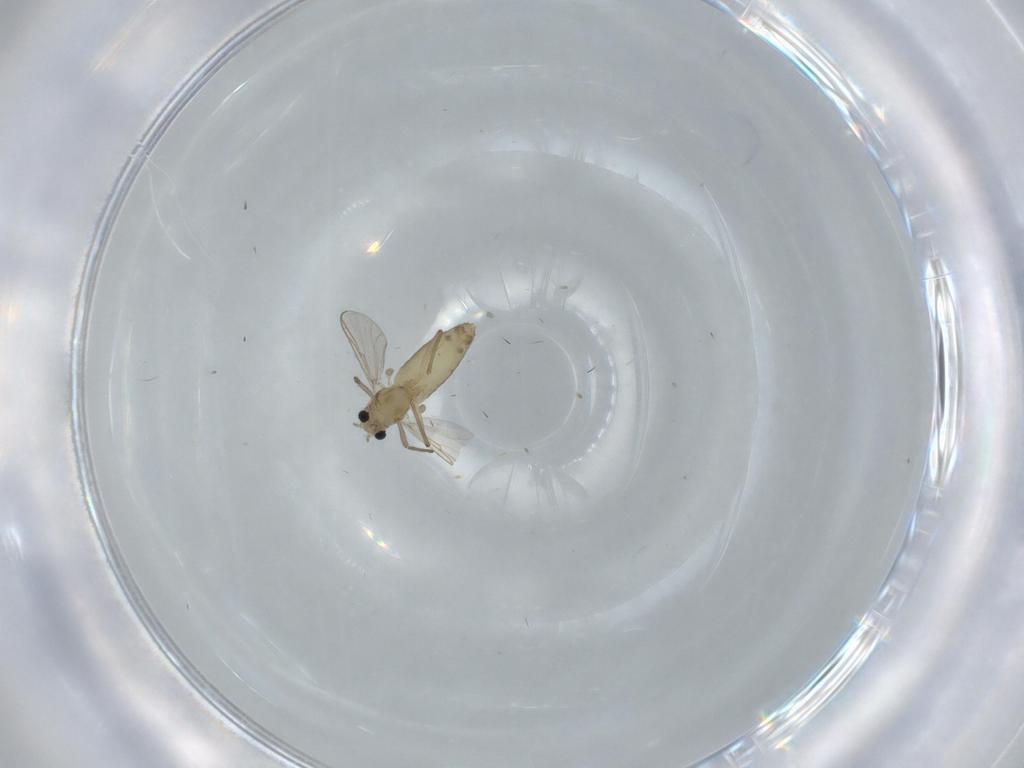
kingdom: Animalia
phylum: Arthropoda
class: Insecta
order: Diptera
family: Chironomidae
